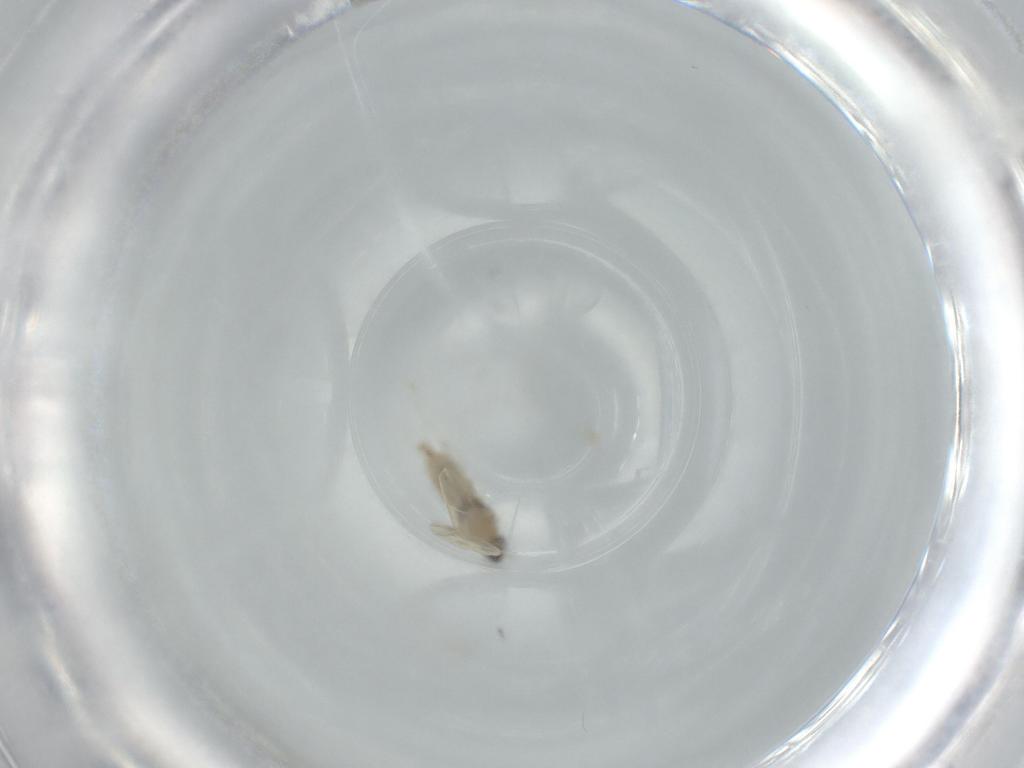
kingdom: Animalia
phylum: Arthropoda
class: Insecta
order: Diptera
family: Cecidomyiidae
